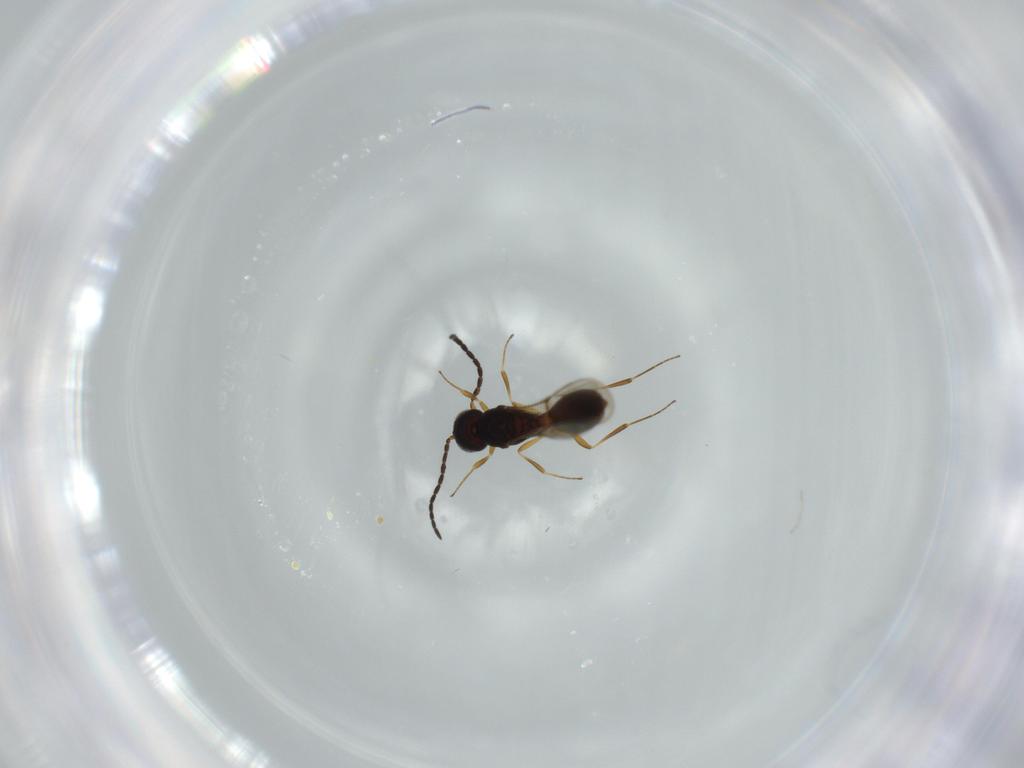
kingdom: Animalia
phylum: Arthropoda
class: Insecta
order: Hymenoptera
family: Scelionidae
